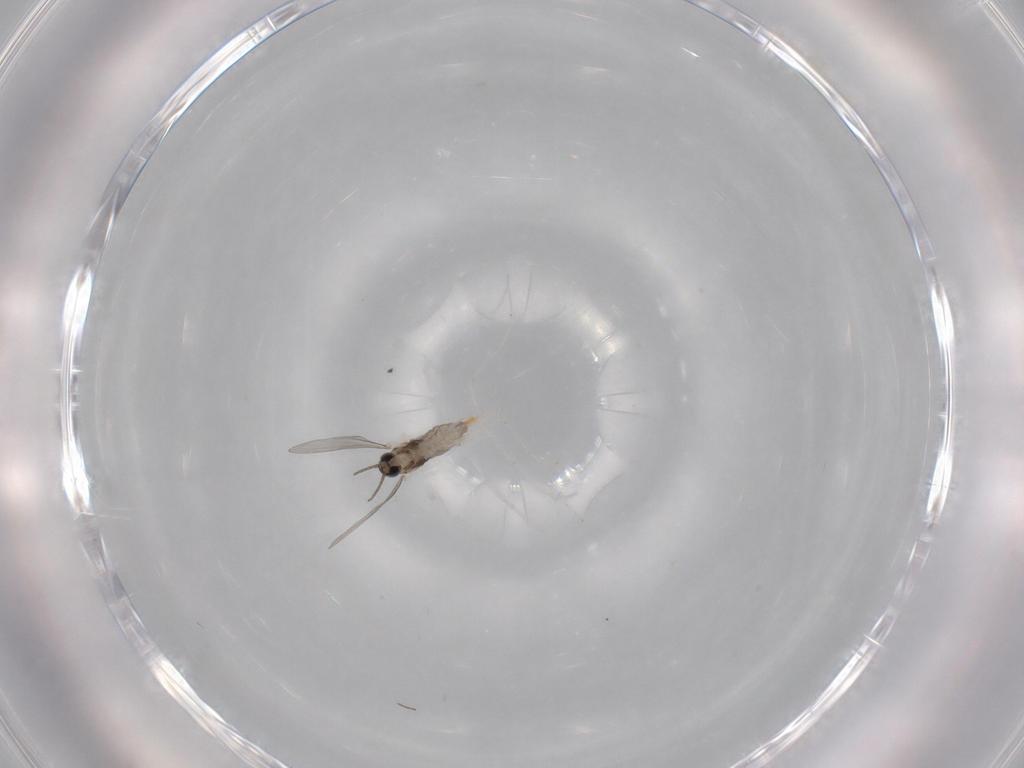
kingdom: Animalia
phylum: Arthropoda
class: Insecta
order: Diptera
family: Cecidomyiidae
